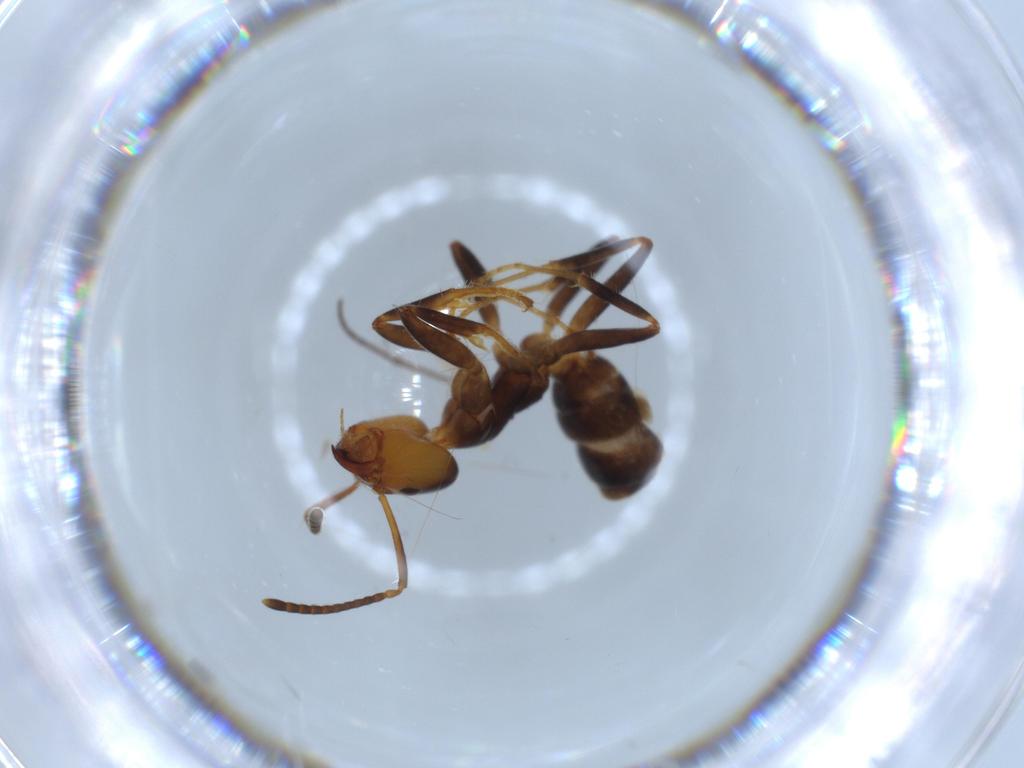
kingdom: Animalia
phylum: Arthropoda
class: Insecta
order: Hymenoptera
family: Formicidae
